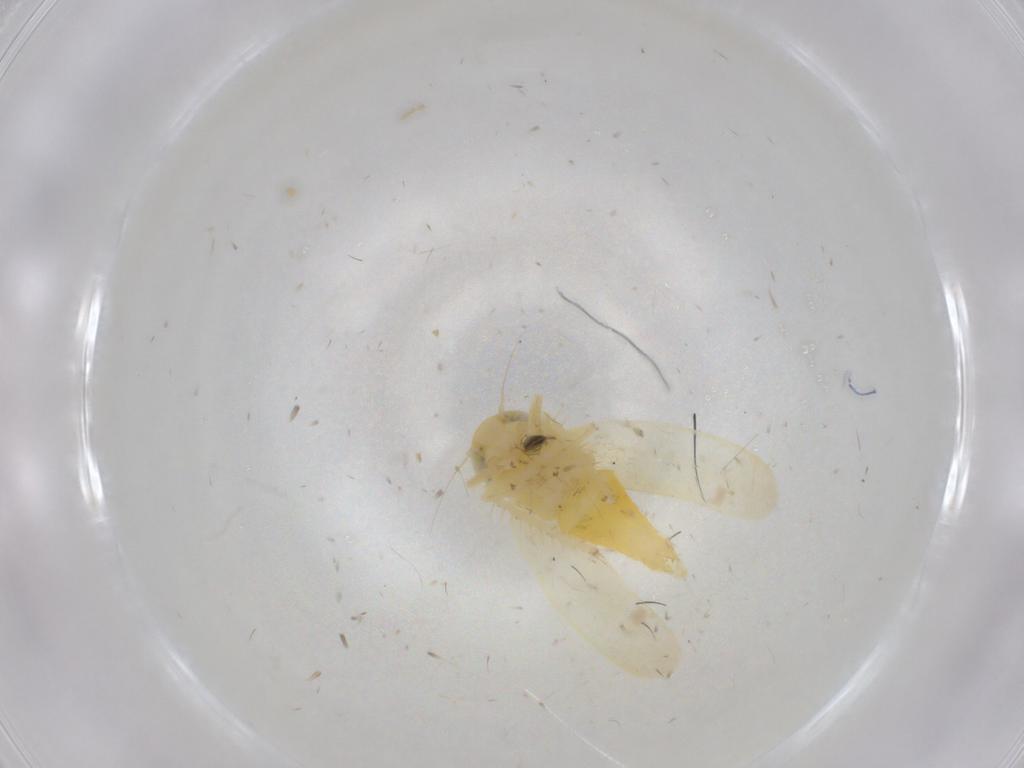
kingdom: Animalia
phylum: Arthropoda
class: Insecta
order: Hemiptera
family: Cicadellidae
